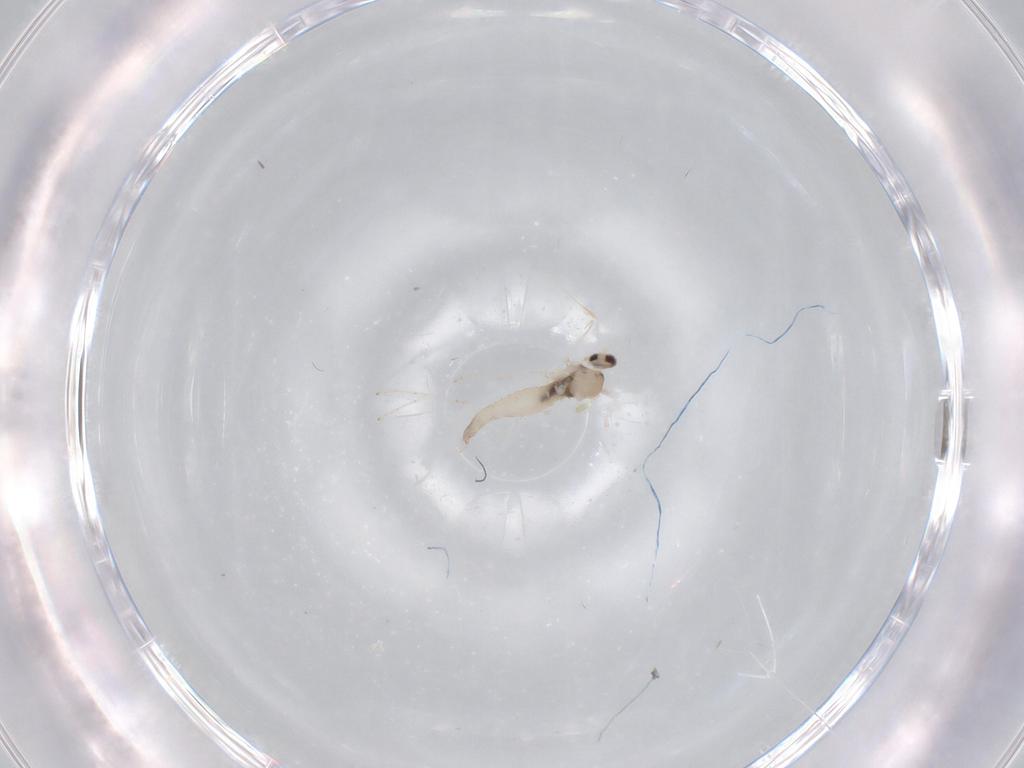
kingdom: Animalia
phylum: Arthropoda
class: Insecta
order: Diptera
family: Cecidomyiidae
